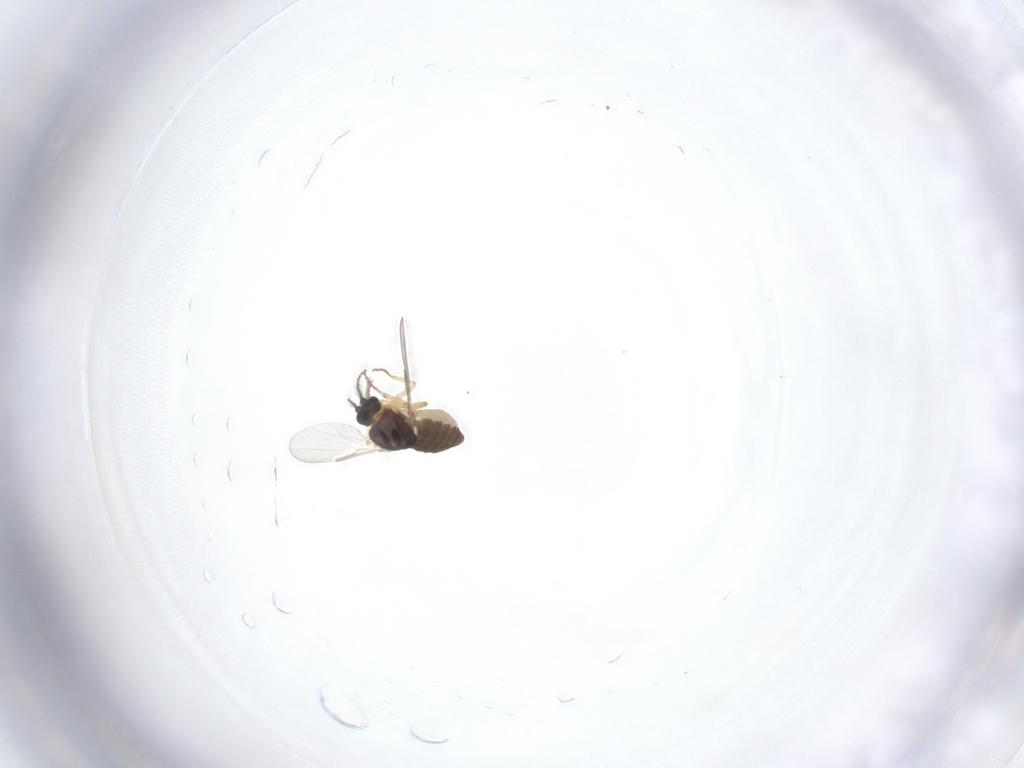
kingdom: Animalia
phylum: Arthropoda
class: Insecta
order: Diptera
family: Ceratopogonidae
